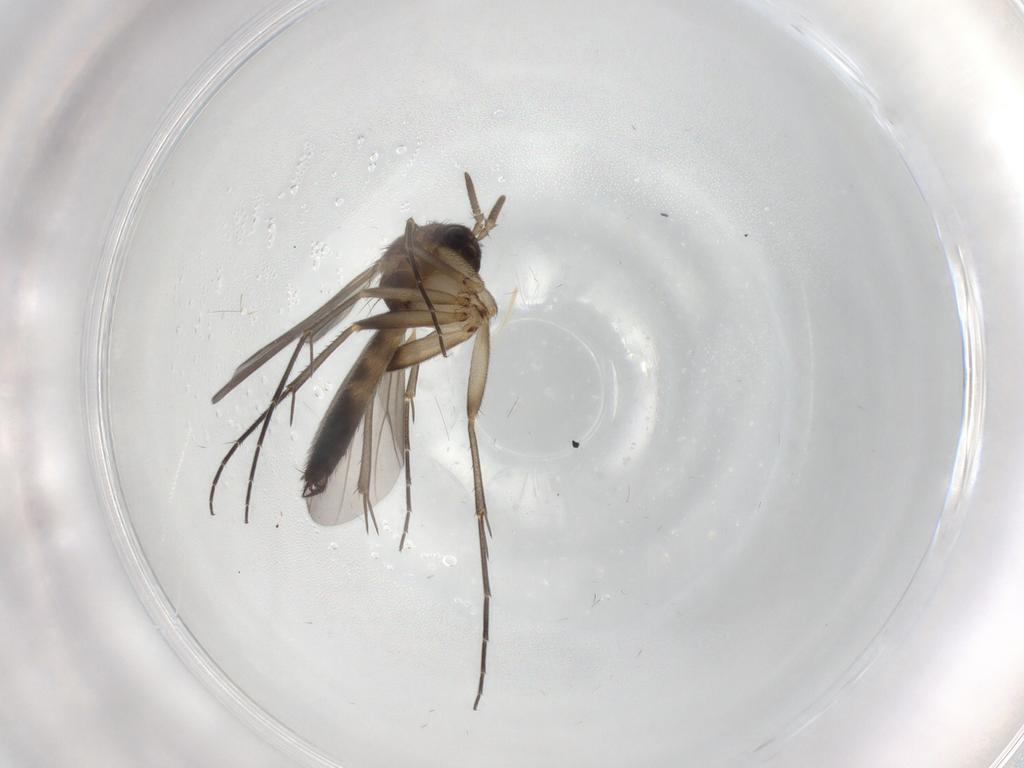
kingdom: Animalia
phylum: Arthropoda
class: Insecta
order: Diptera
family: Mycetophilidae
